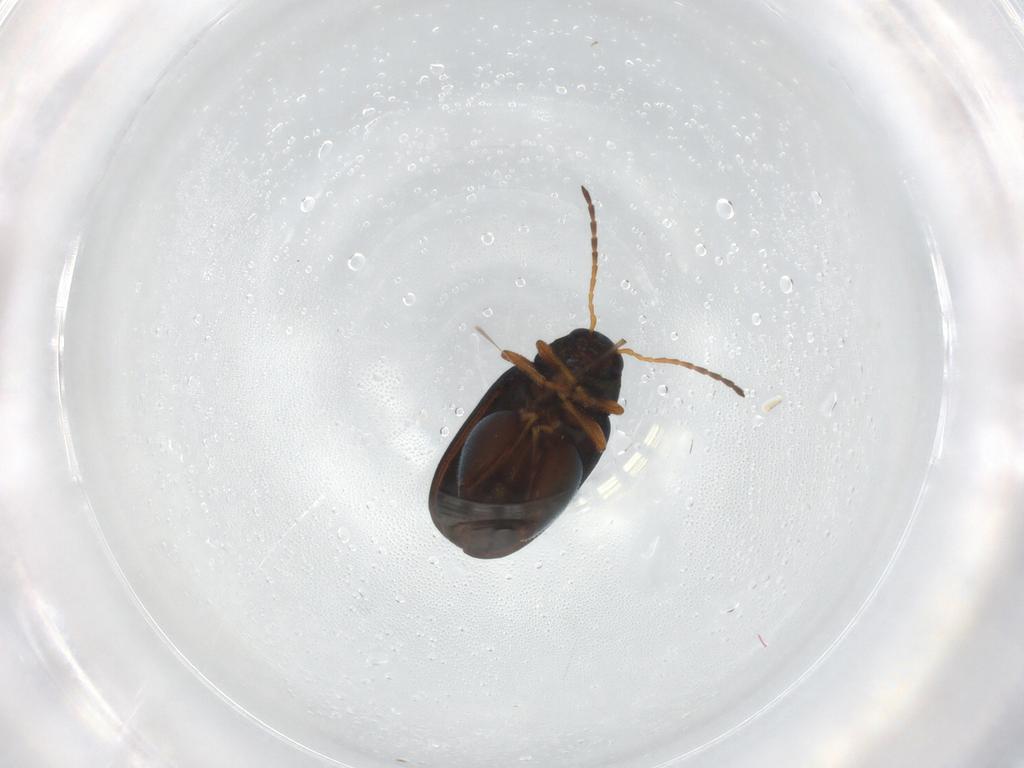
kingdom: Animalia
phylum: Arthropoda
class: Insecta
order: Coleoptera
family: Chrysomelidae
